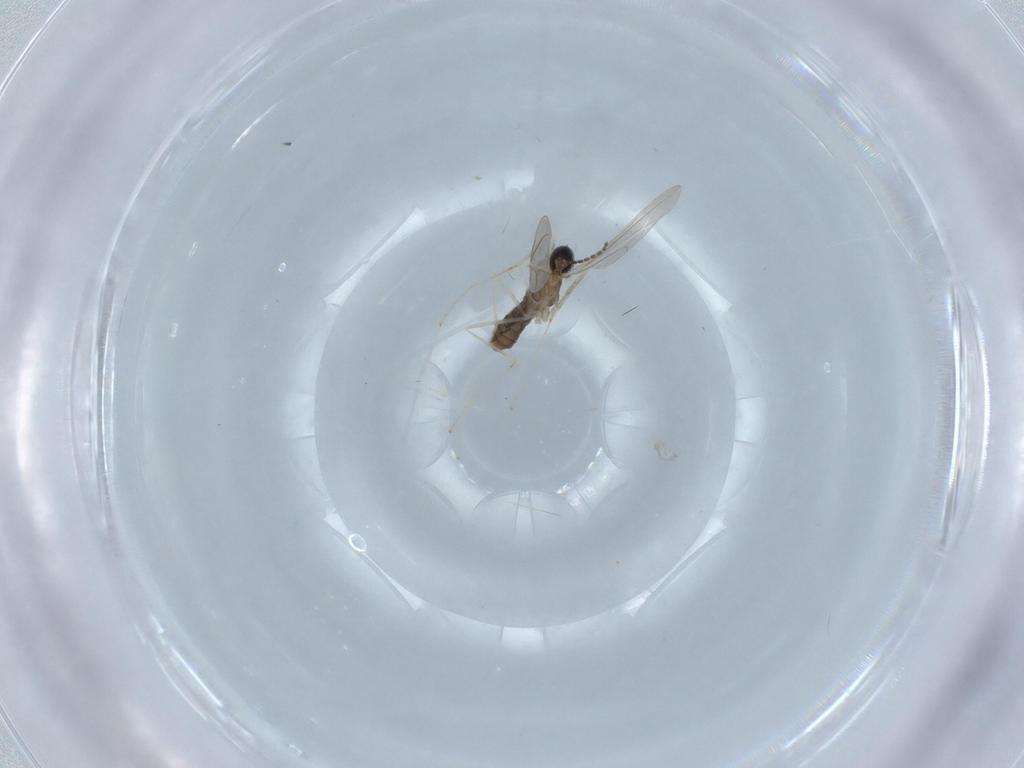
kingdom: Animalia
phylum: Arthropoda
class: Insecta
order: Diptera
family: Cecidomyiidae
